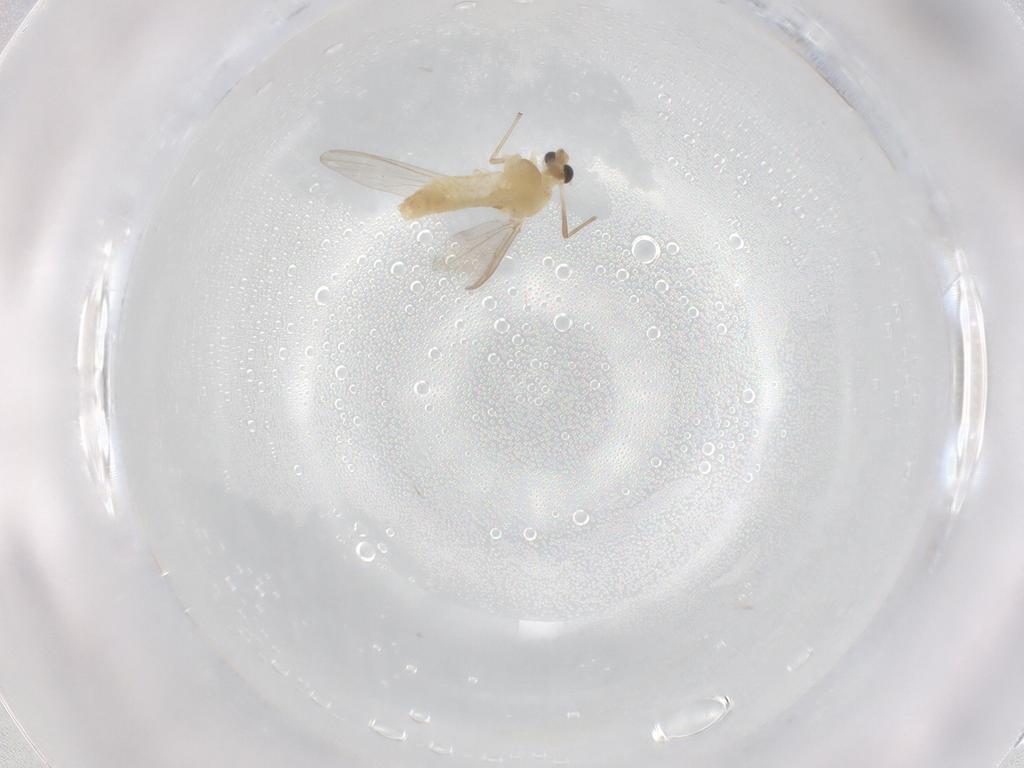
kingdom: Animalia
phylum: Arthropoda
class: Insecta
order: Diptera
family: Chironomidae
